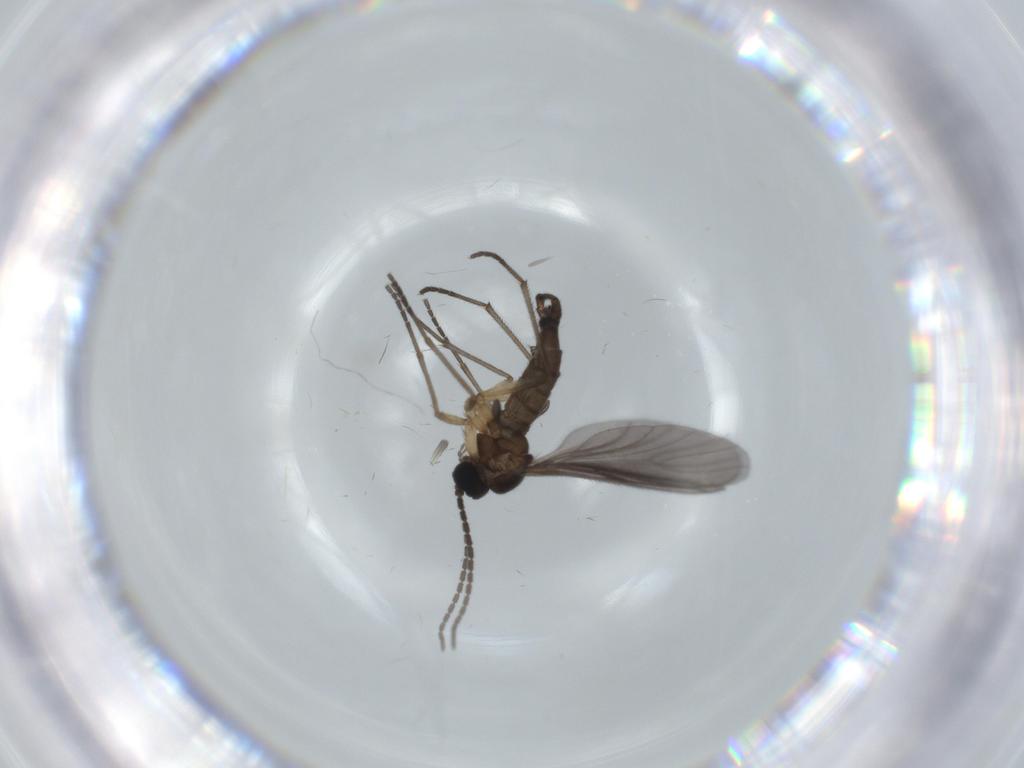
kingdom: Animalia
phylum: Arthropoda
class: Insecta
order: Diptera
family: Sciaridae
